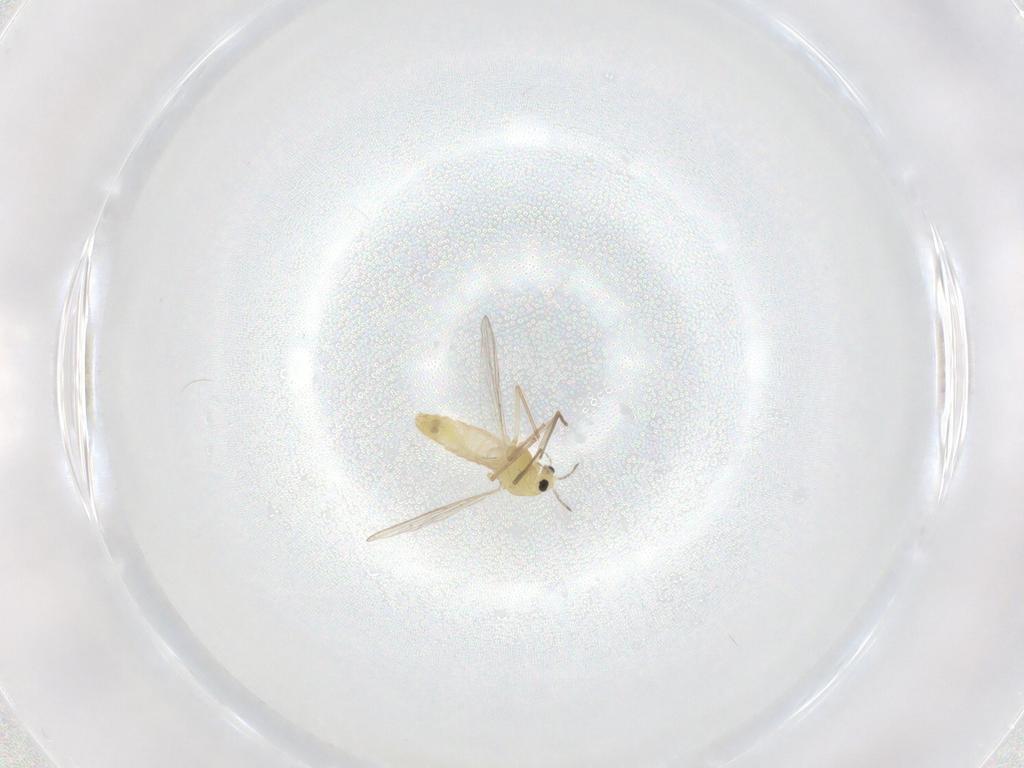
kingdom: Animalia
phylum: Arthropoda
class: Insecta
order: Diptera
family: Chironomidae
